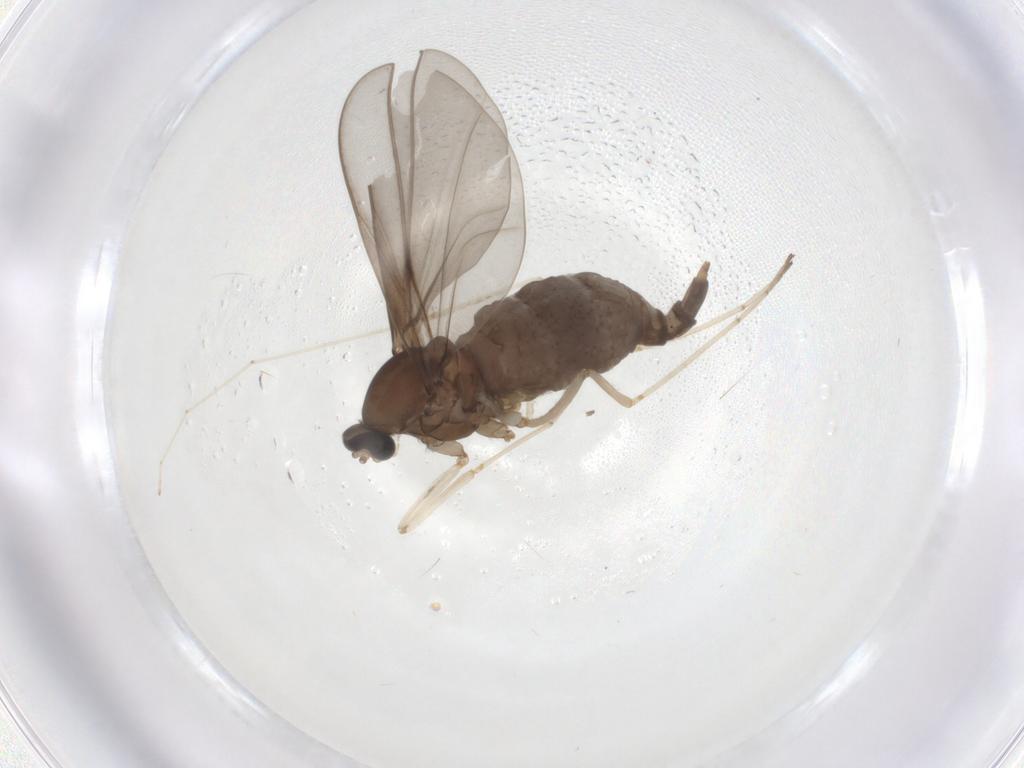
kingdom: Animalia
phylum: Arthropoda
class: Insecta
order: Diptera
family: Cecidomyiidae
